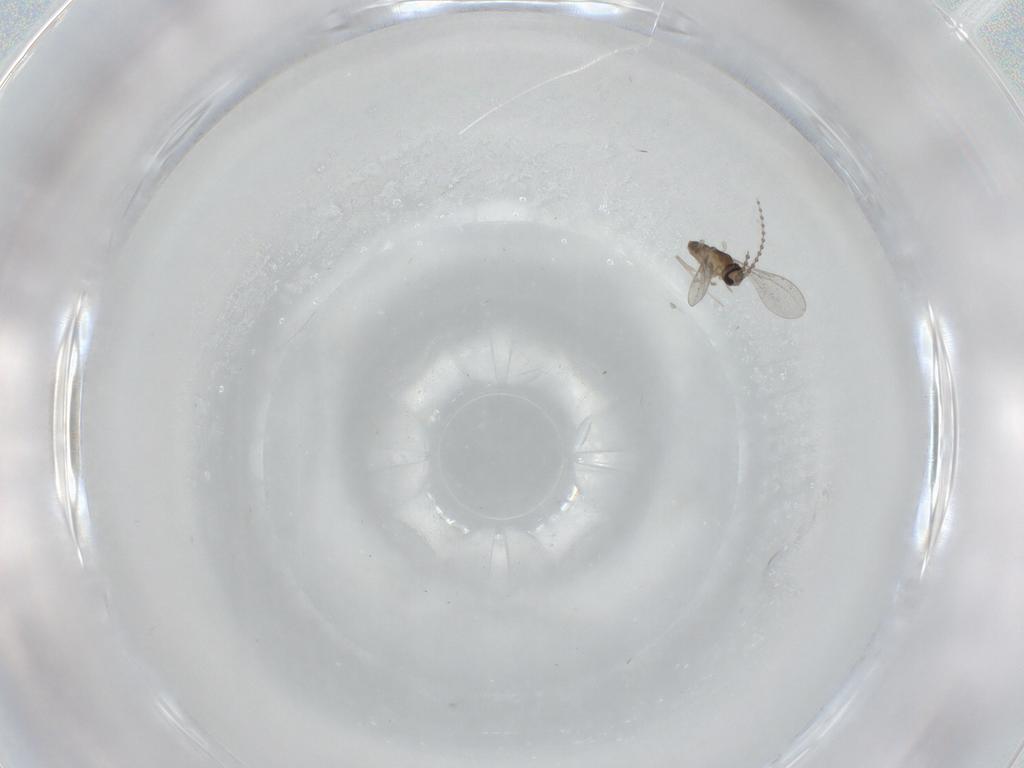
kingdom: Animalia
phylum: Arthropoda
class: Insecta
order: Diptera
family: Cecidomyiidae
